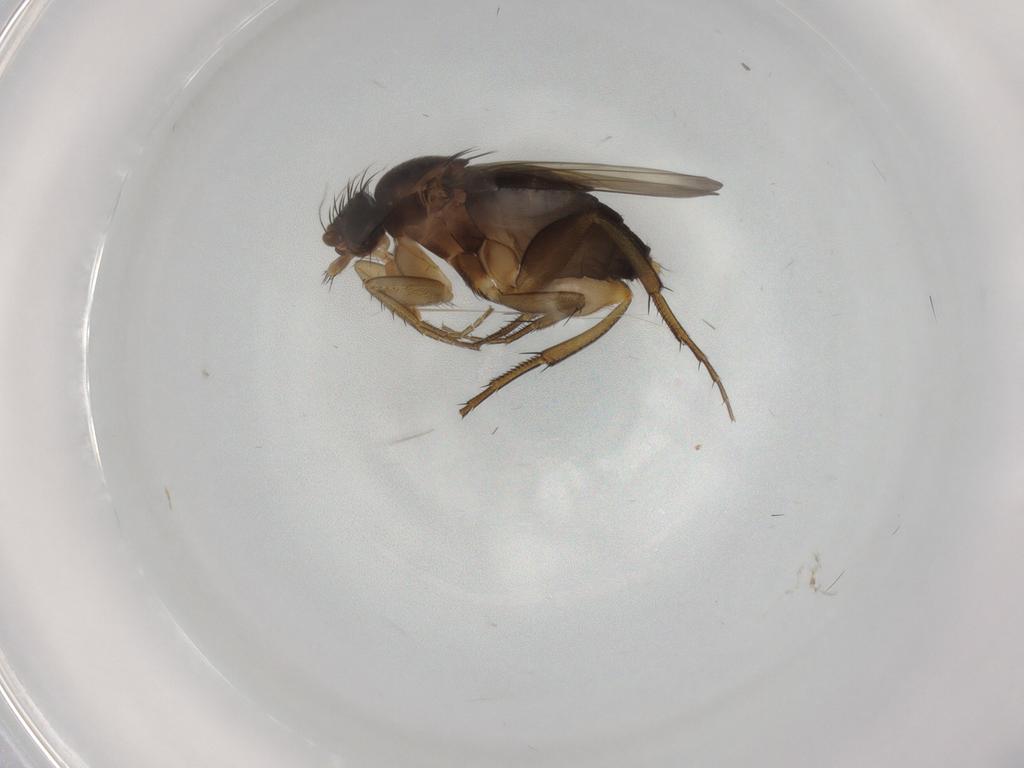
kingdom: Animalia
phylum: Arthropoda
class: Insecta
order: Diptera
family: Phoridae
